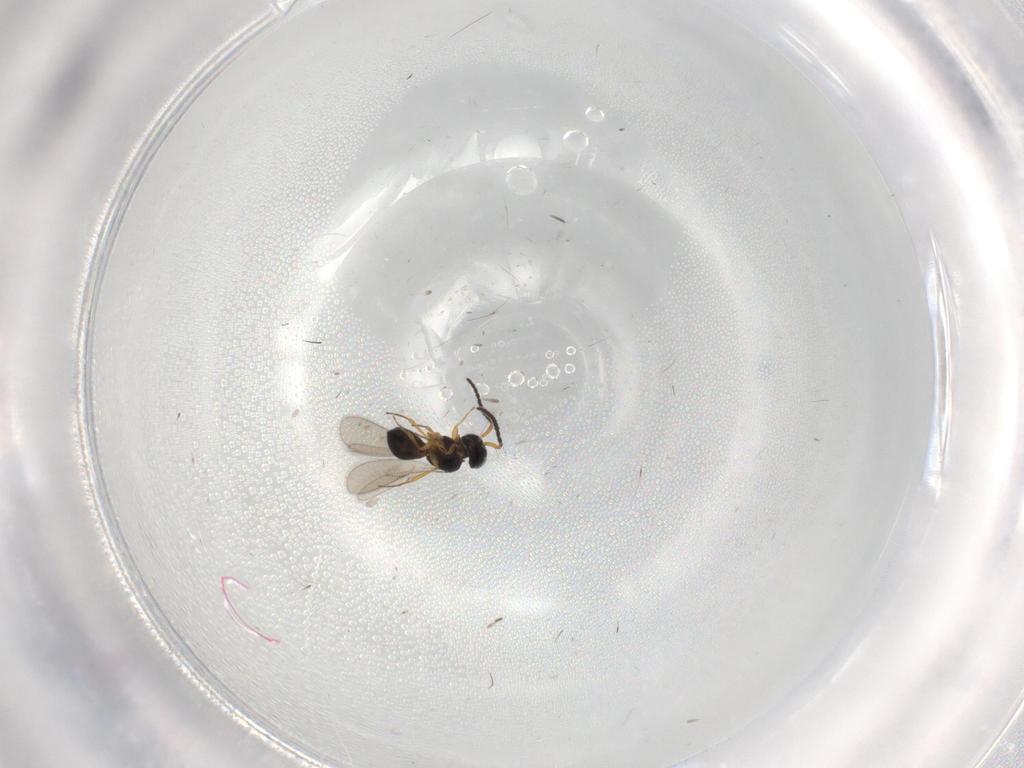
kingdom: Animalia
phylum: Arthropoda
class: Insecta
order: Hymenoptera
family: Scelionidae
